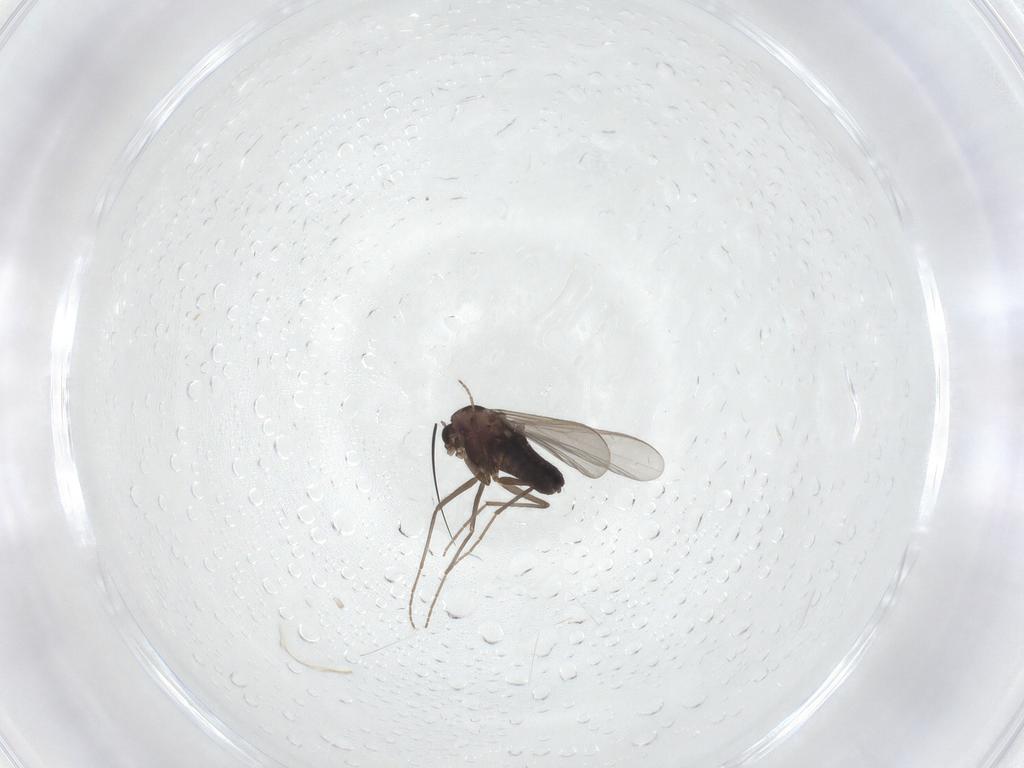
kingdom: Animalia
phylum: Arthropoda
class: Insecta
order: Diptera
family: Chironomidae
